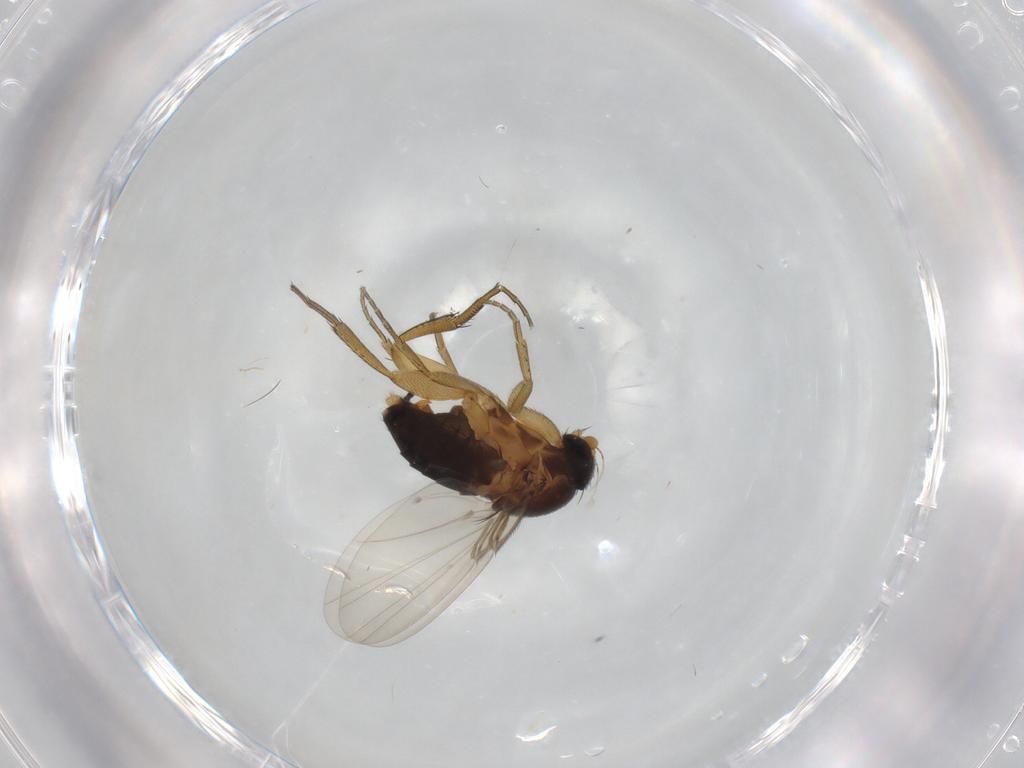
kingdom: Animalia
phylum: Arthropoda
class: Insecta
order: Diptera
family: Phoridae
